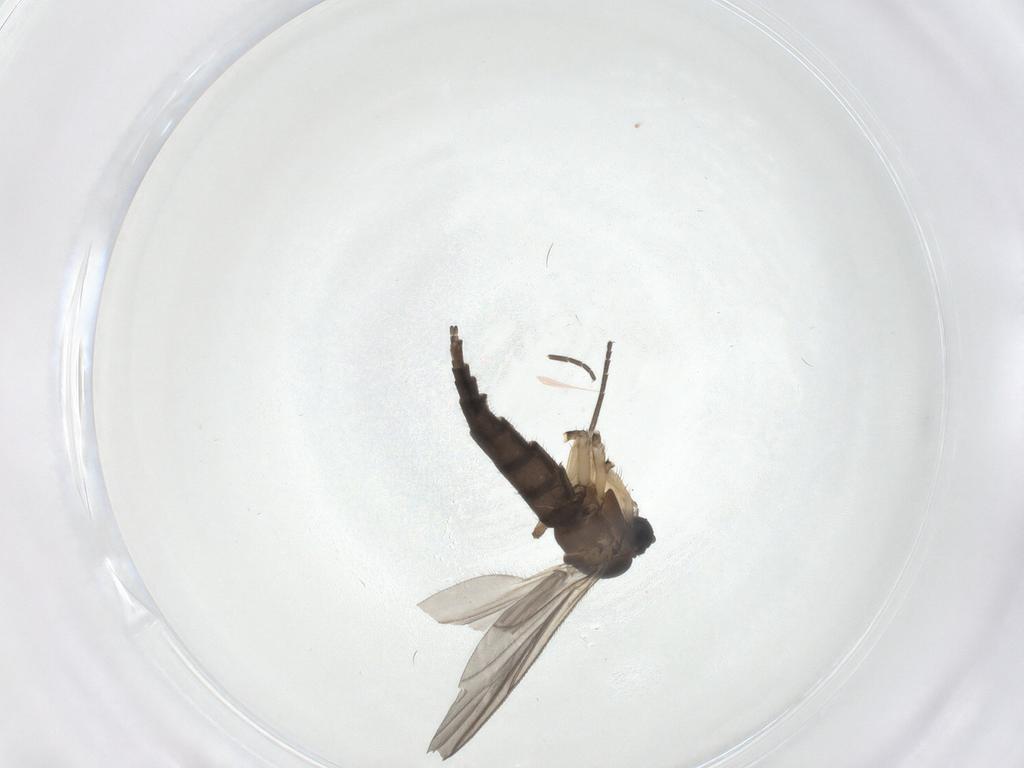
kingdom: Animalia
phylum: Arthropoda
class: Insecta
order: Diptera
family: Sciaridae
